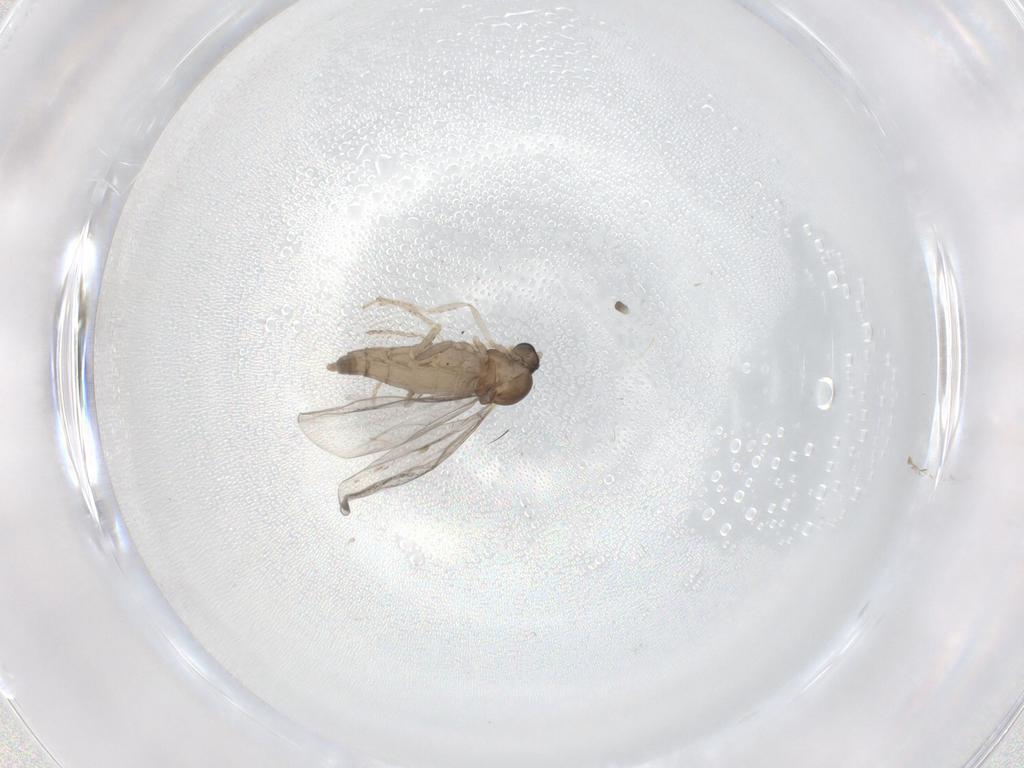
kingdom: Animalia
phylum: Arthropoda
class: Insecta
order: Diptera
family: Cecidomyiidae
